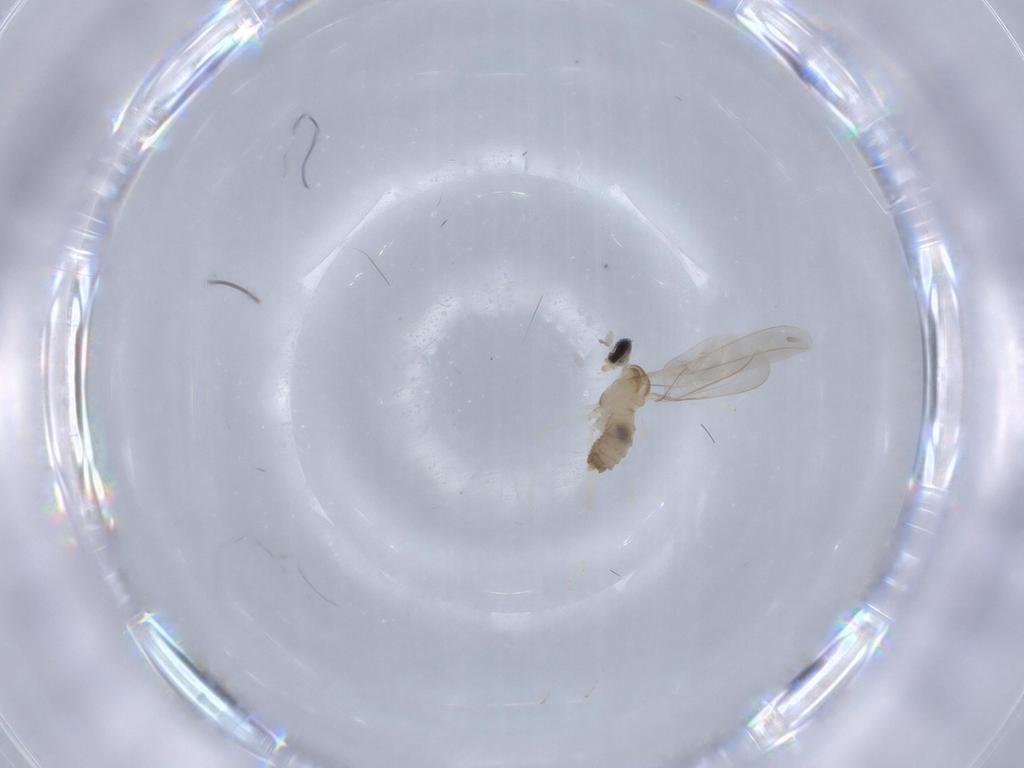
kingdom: Animalia
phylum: Arthropoda
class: Insecta
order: Diptera
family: Cecidomyiidae
